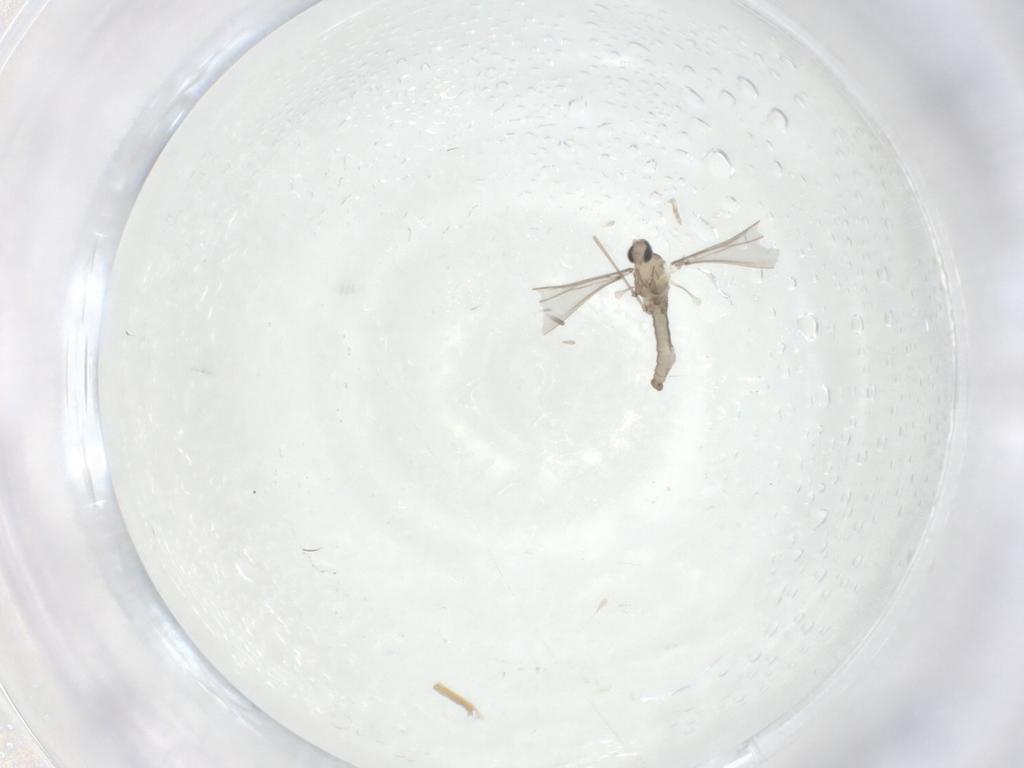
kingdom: Animalia
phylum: Arthropoda
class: Insecta
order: Diptera
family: Cecidomyiidae
